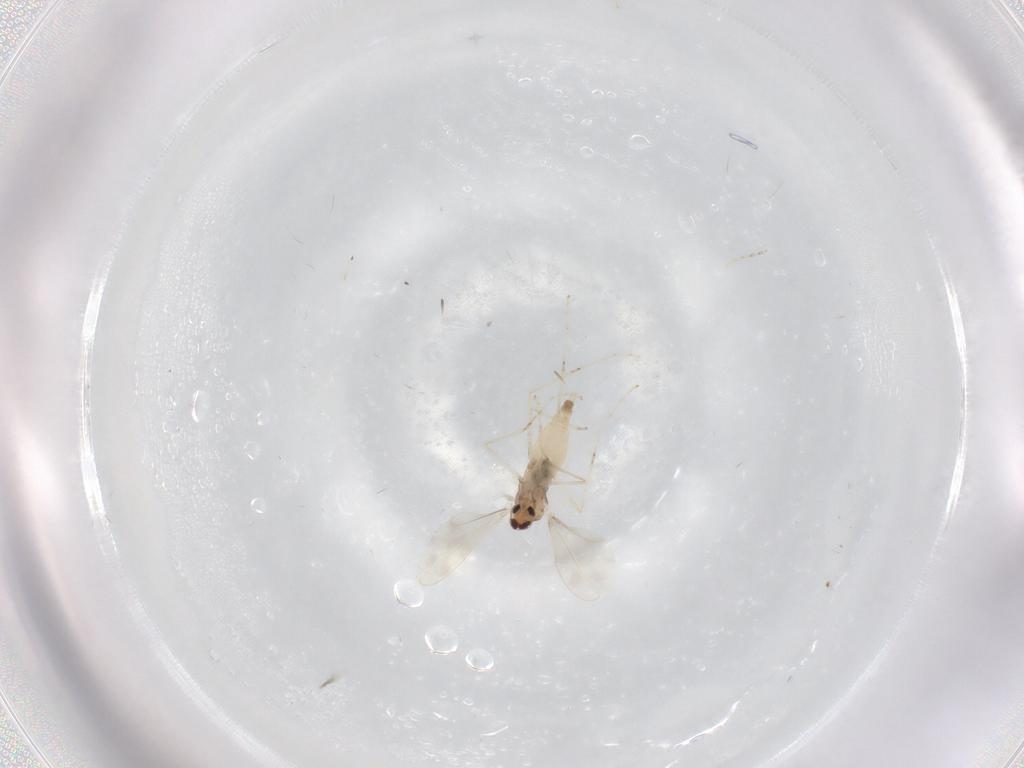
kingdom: Animalia
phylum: Arthropoda
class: Insecta
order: Diptera
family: Cecidomyiidae
